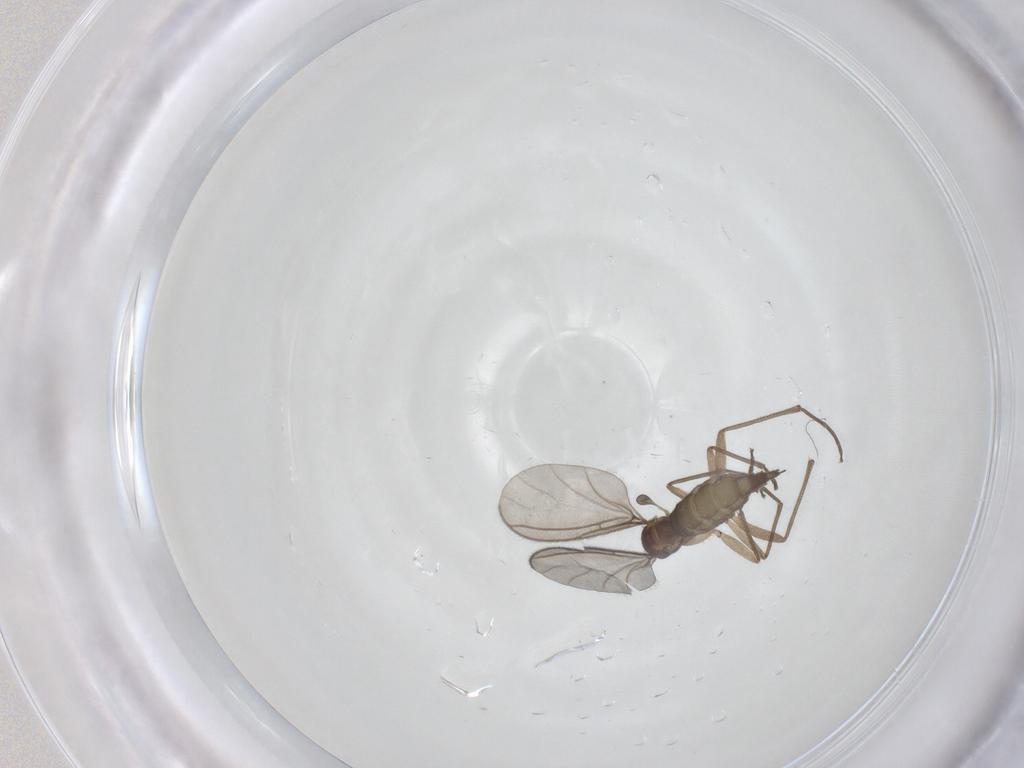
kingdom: Animalia
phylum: Arthropoda
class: Insecta
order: Diptera
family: Sciaridae
